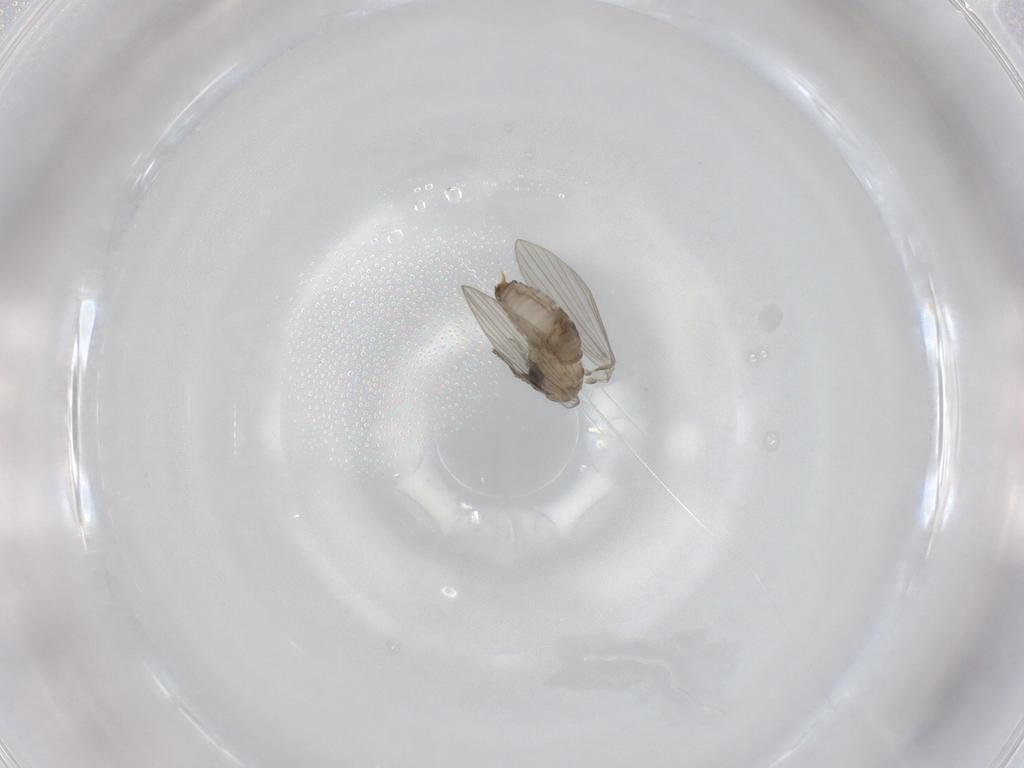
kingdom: Animalia
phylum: Arthropoda
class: Insecta
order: Diptera
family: Psychodidae
